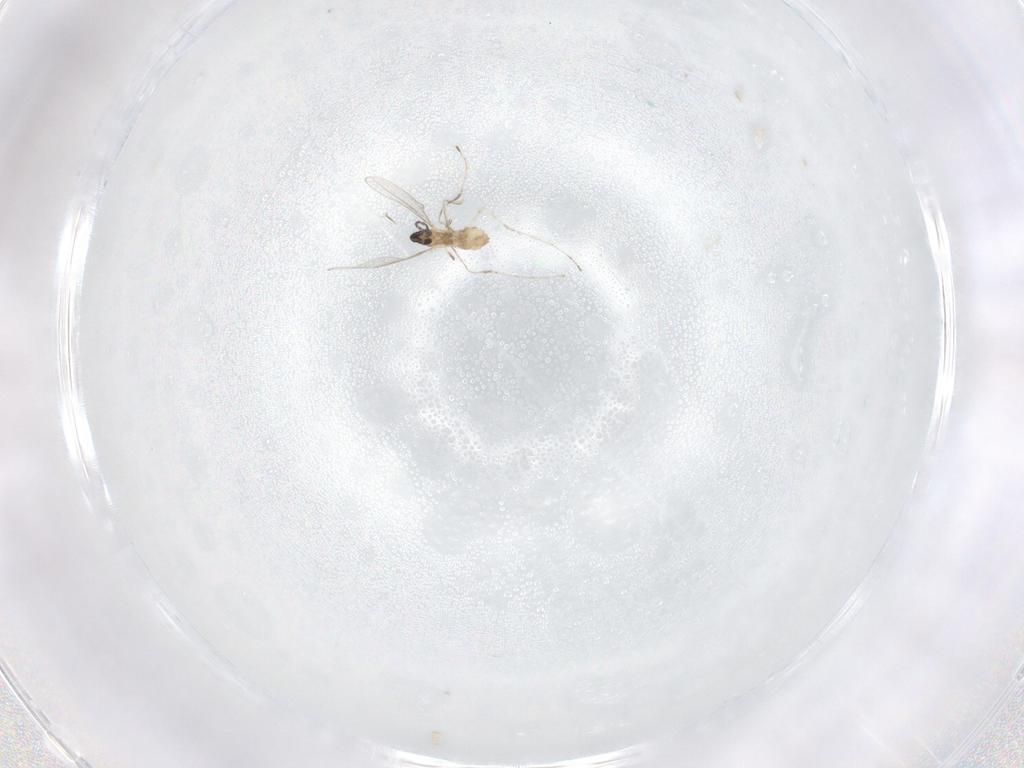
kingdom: Animalia
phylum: Arthropoda
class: Insecta
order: Diptera
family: Cecidomyiidae
